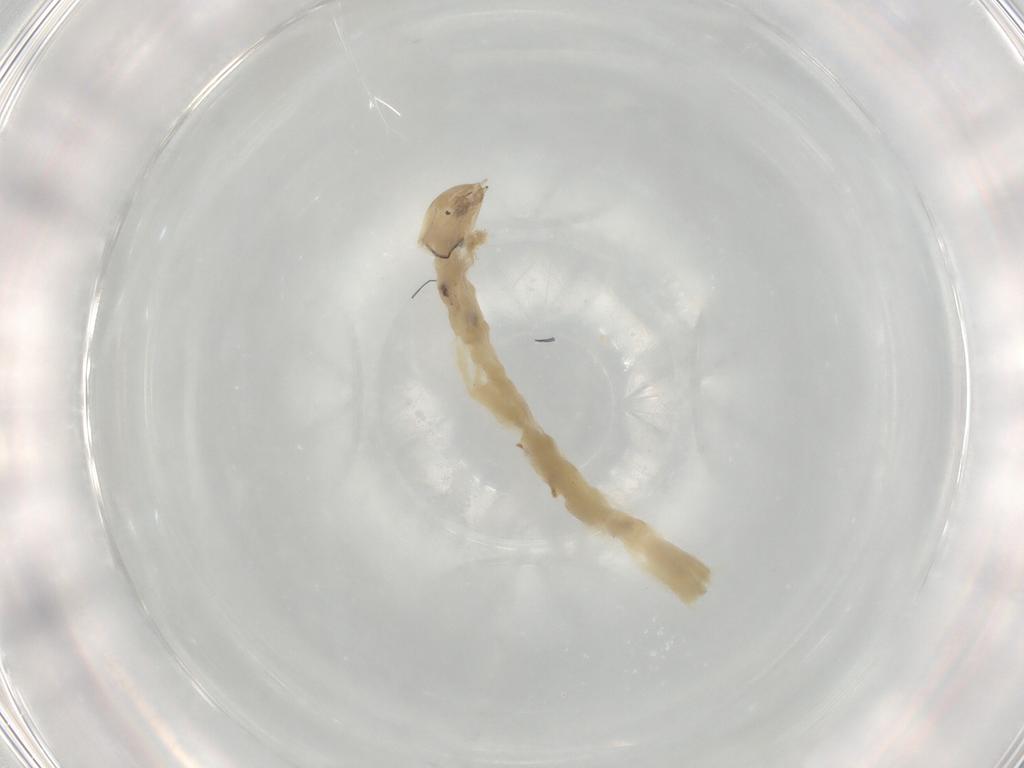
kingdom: Animalia
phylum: Arthropoda
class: Insecta
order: Diptera
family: Chironomidae
